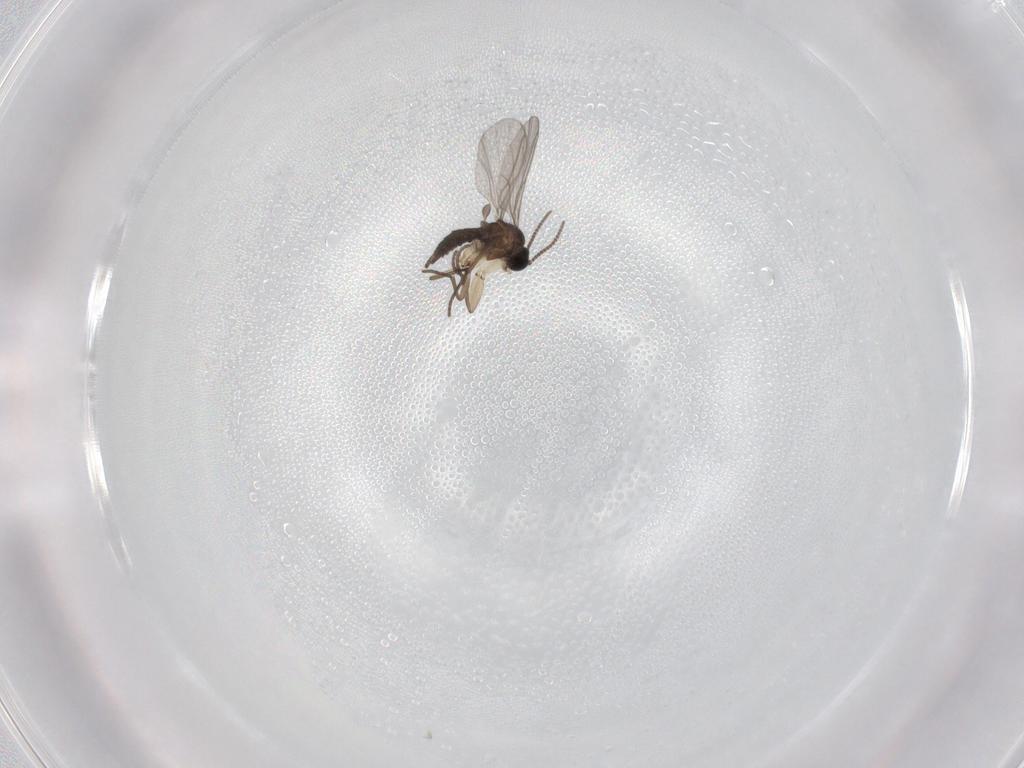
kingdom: Animalia
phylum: Arthropoda
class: Insecta
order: Diptera
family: Sciaridae
